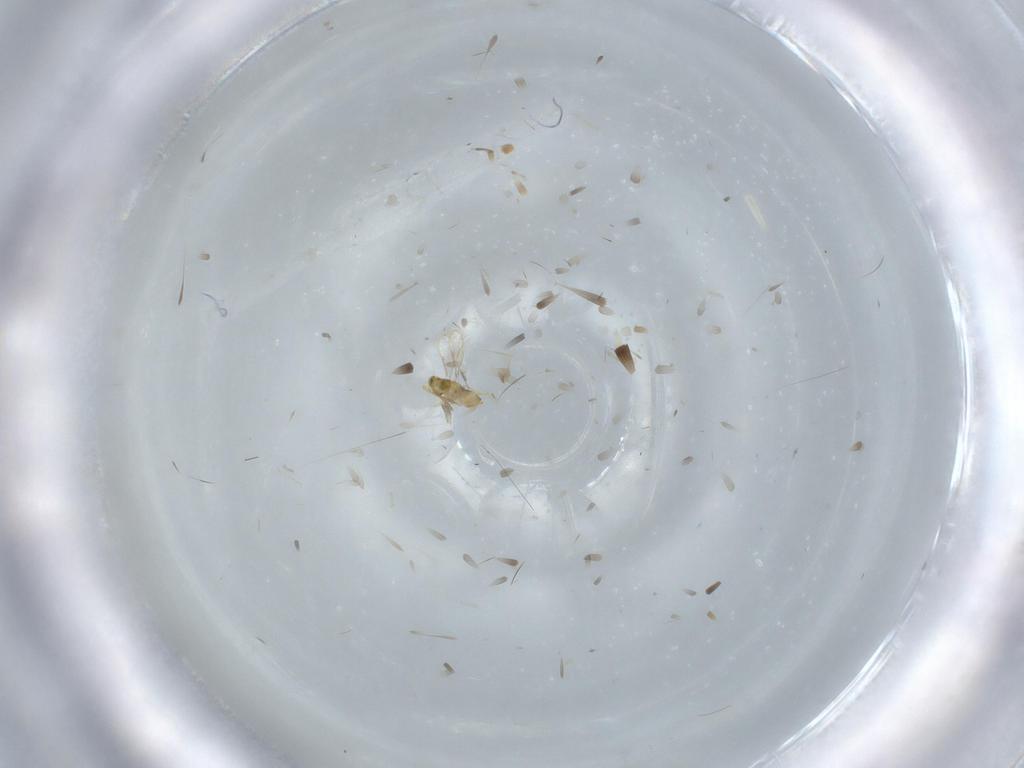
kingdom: Animalia
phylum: Arthropoda
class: Insecta
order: Hymenoptera
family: Aphelinidae
